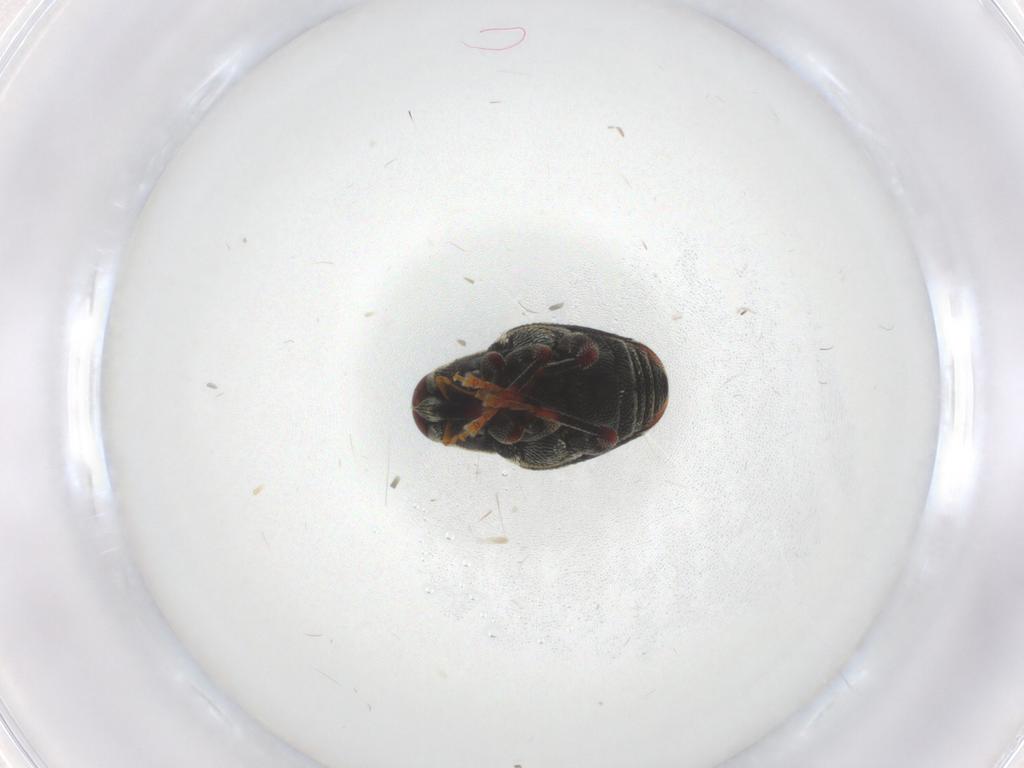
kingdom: Animalia
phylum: Arthropoda
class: Insecta
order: Coleoptera
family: Curculionidae
